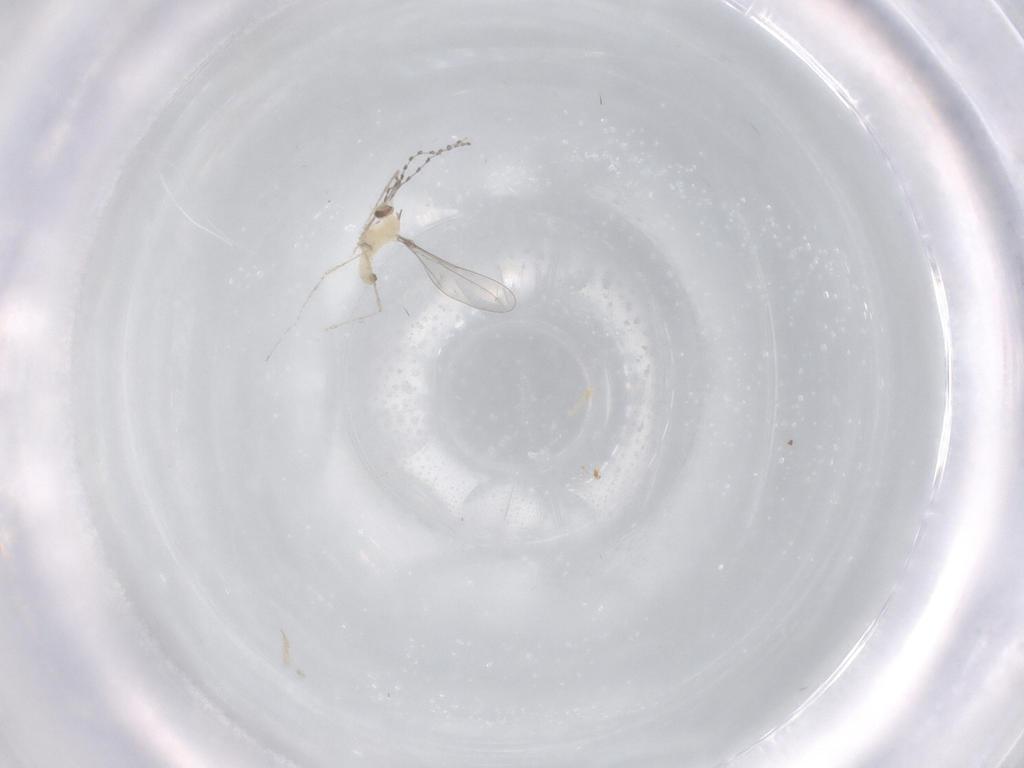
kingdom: Animalia
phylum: Arthropoda
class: Insecta
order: Diptera
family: Cecidomyiidae
